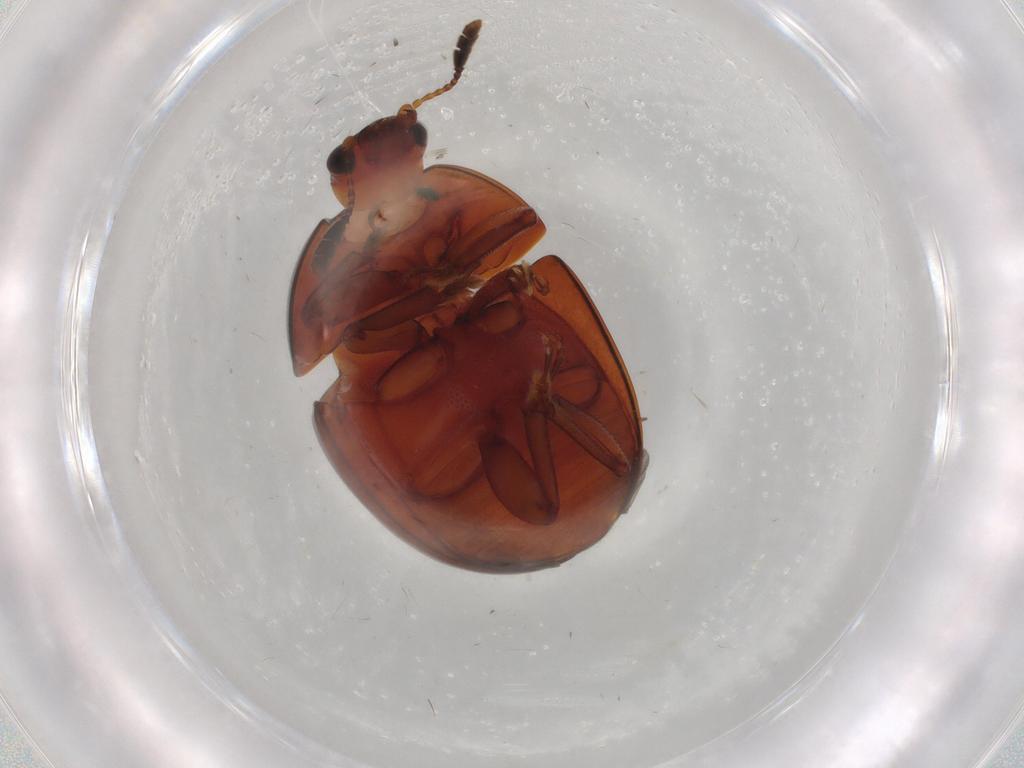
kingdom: Animalia
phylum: Arthropoda
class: Insecta
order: Coleoptera
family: Nitidulidae
